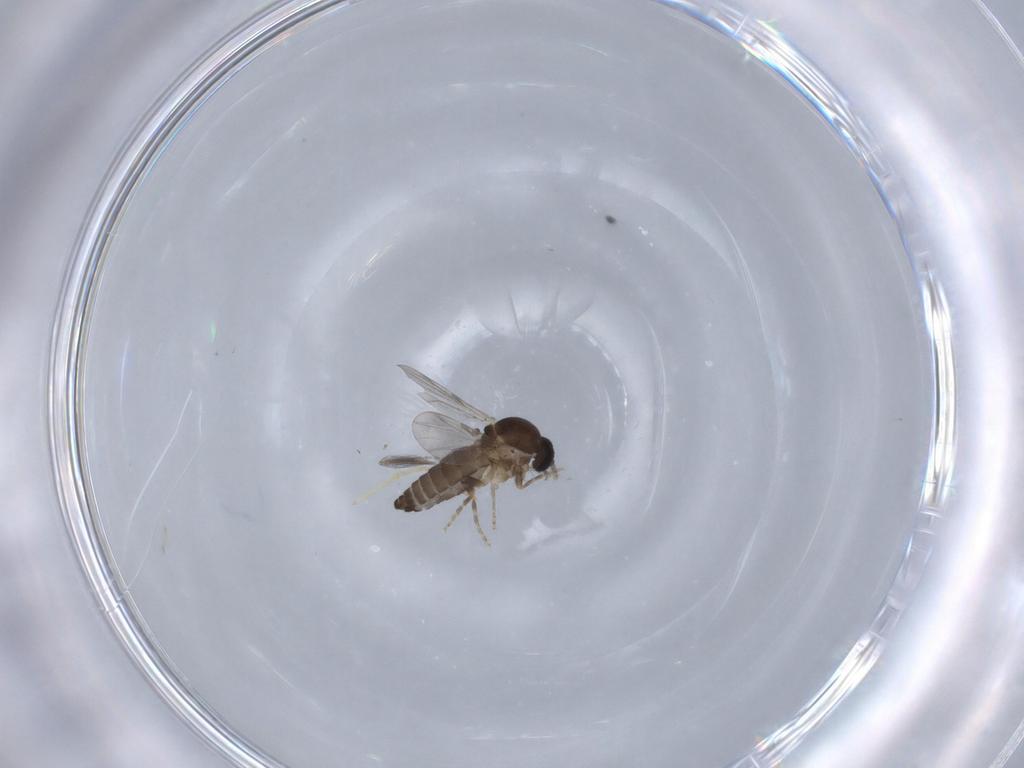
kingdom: Animalia
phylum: Arthropoda
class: Insecta
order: Diptera
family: Ceratopogonidae
